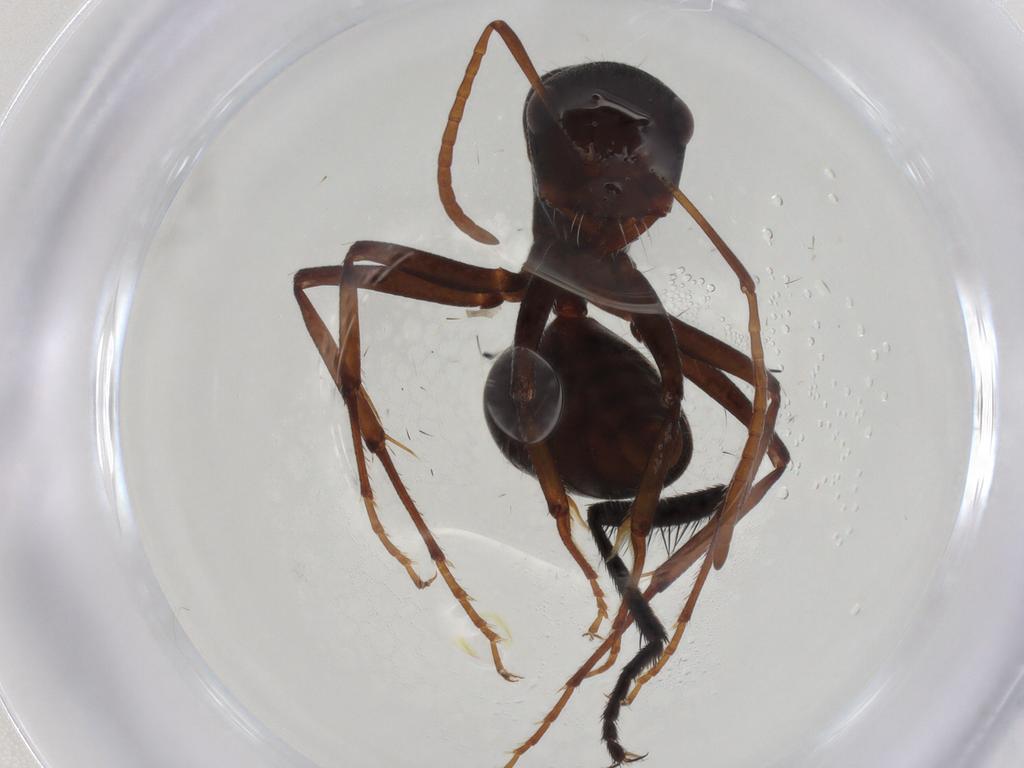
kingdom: Animalia
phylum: Arthropoda
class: Insecta
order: Hymenoptera
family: Formicidae
